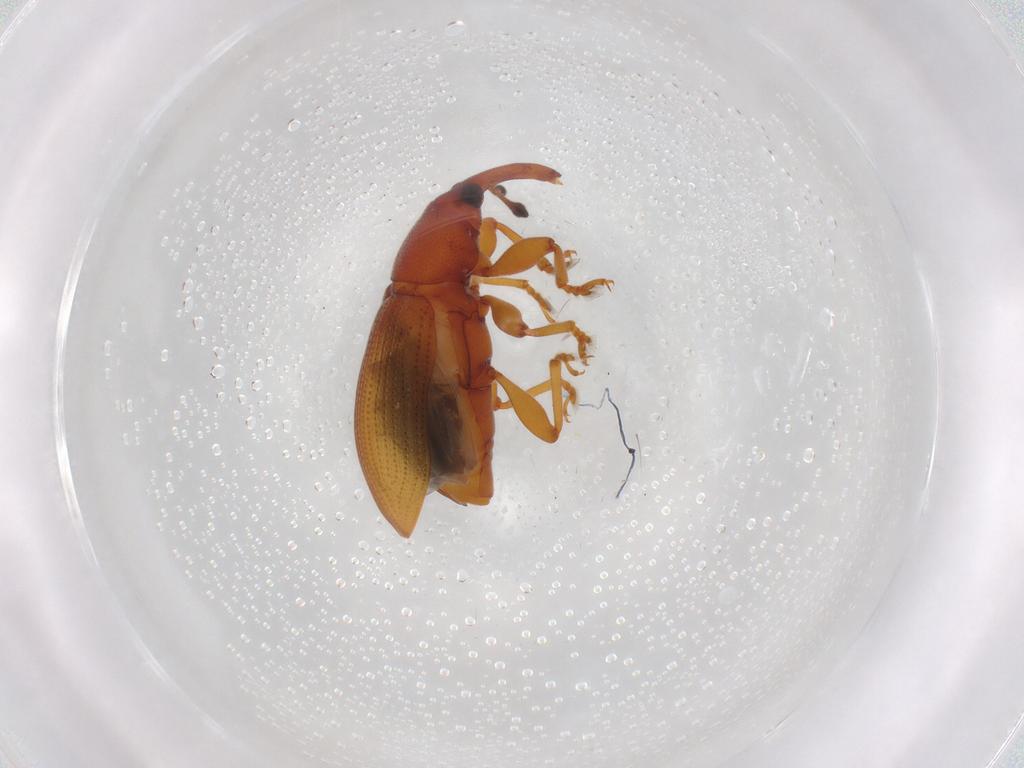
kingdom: Animalia
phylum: Arthropoda
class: Insecta
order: Coleoptera
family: Curculionidae
